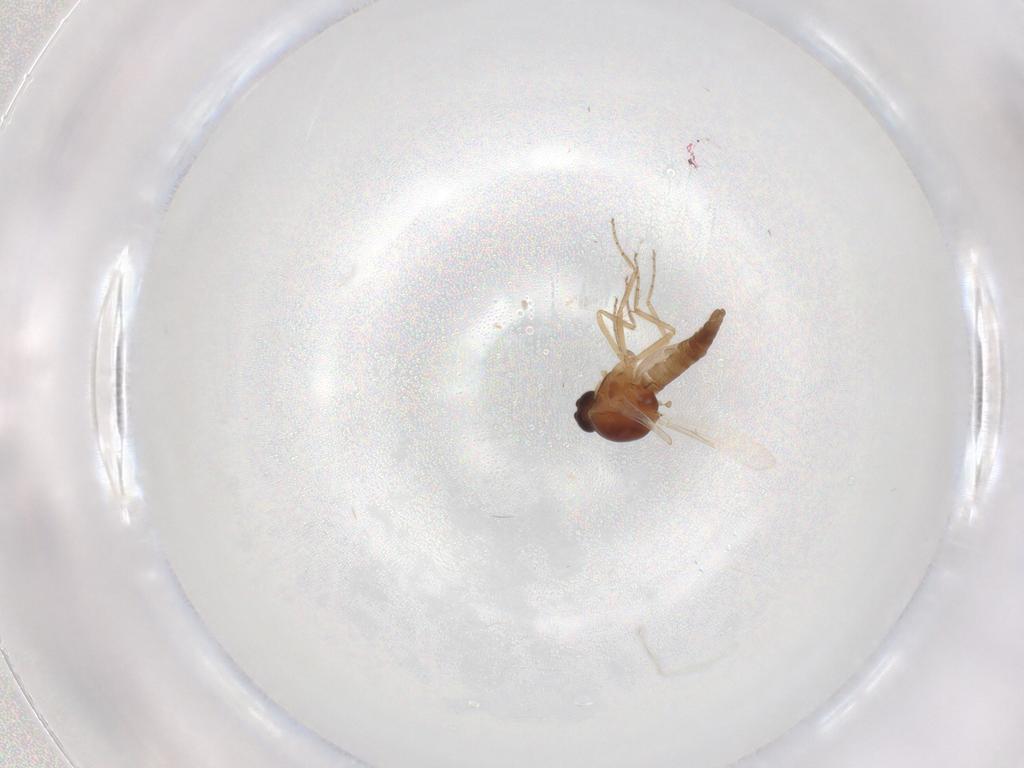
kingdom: Animalia
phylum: Arthropoda
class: Insecta
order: Diptera
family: Ceratopogonidae
